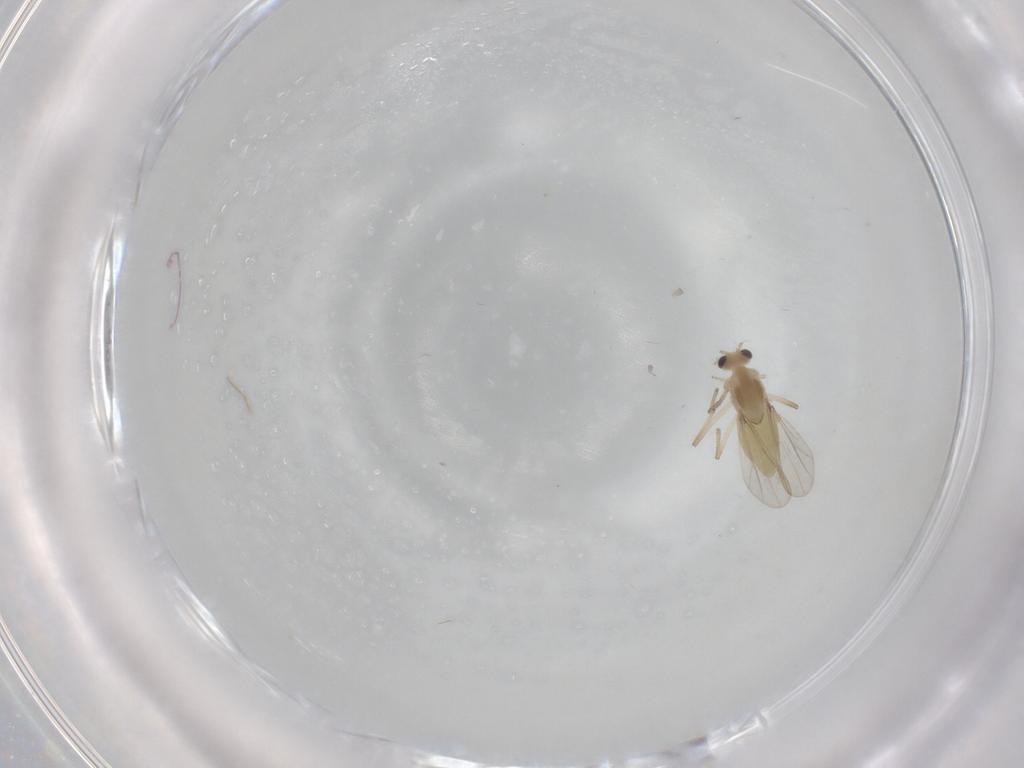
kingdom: Animalia
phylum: Arthropoda
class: Insecta
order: Diptera
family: Chironomidae
